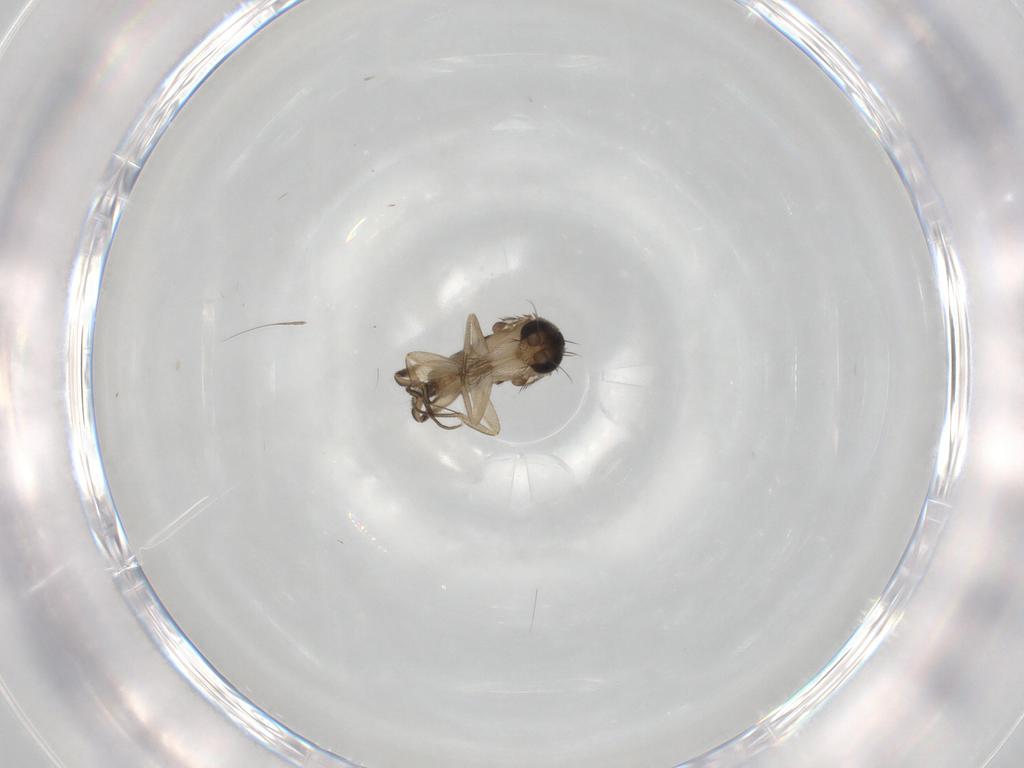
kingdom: Animalia
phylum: Arthropoda
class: Insecta
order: Diptera
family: Phoridae
